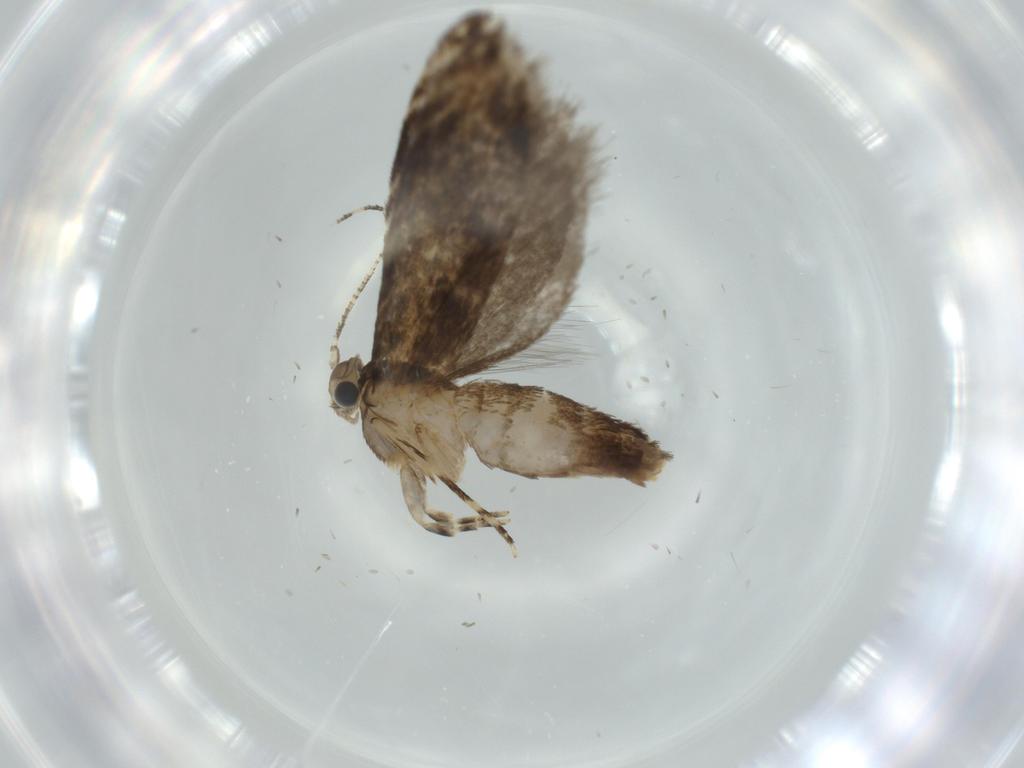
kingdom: Animalia
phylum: Arthropoda
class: Insecta
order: Lepidoptera
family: Tineidae
